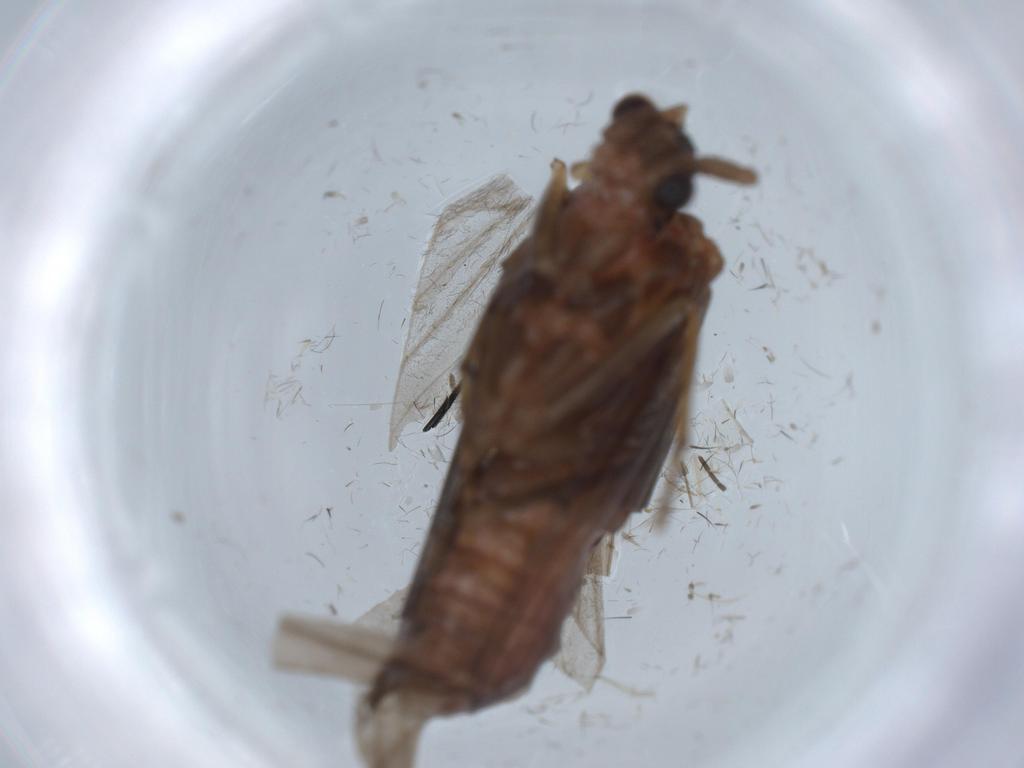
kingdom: Animalia
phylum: Arthropoda
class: Insecta
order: Trichoptera
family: Uenoidae
